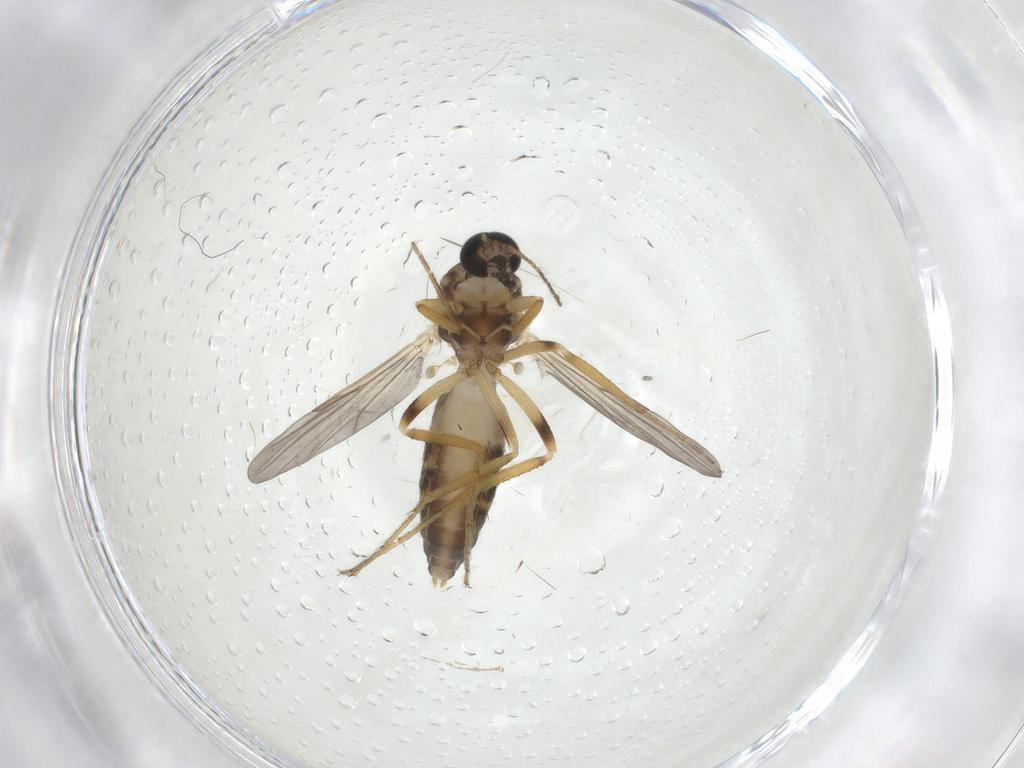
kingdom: Animalia
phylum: Arthropoda
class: Insecta
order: Diptera
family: Ceratopogonidae
